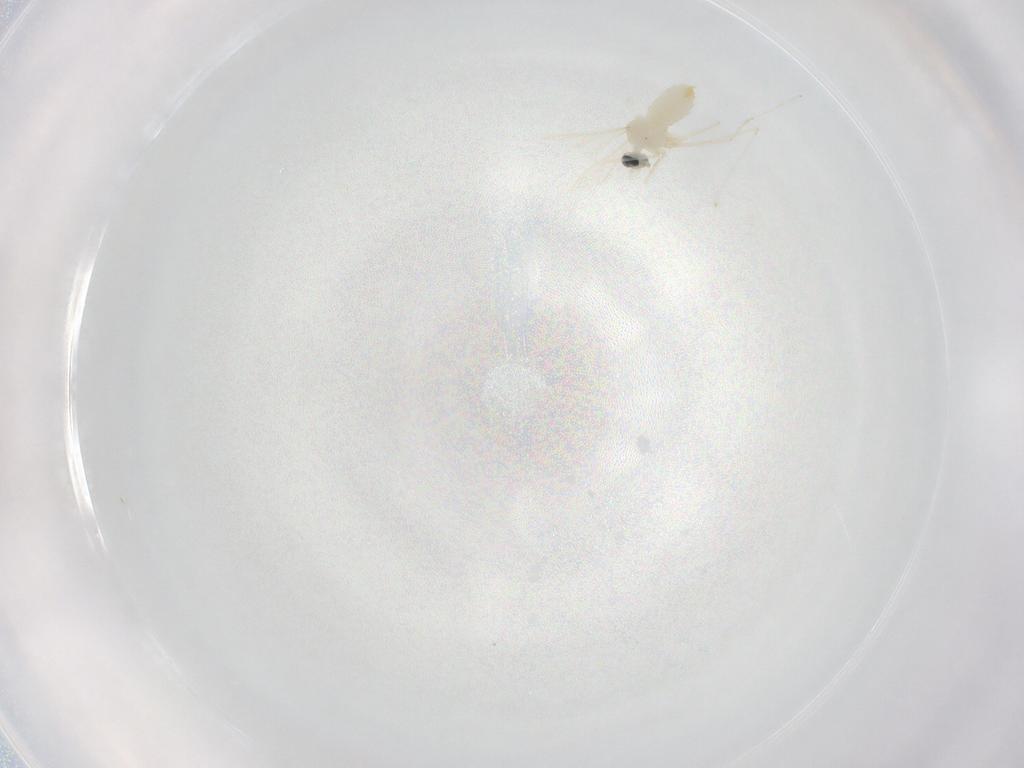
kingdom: Animalia
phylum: Arthropoda
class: Insecta
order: Diptera
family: Cecidomyiidae
